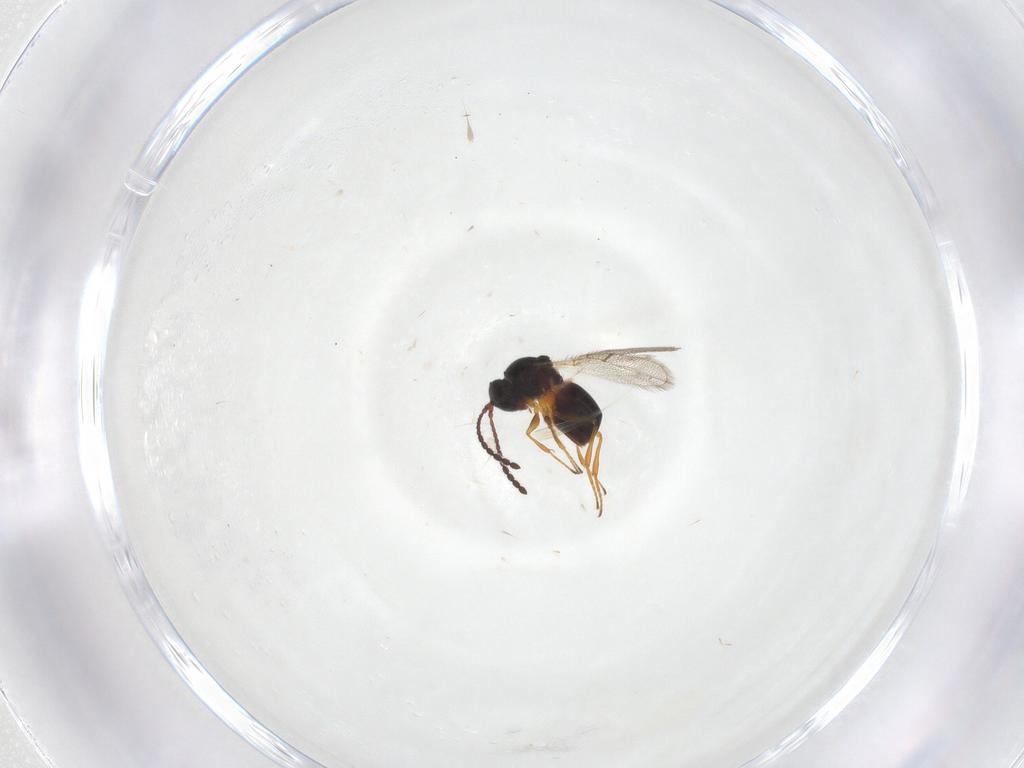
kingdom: Animalia
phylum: Arthropoda
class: Insecta
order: Hymenoptera
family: Figitidae
